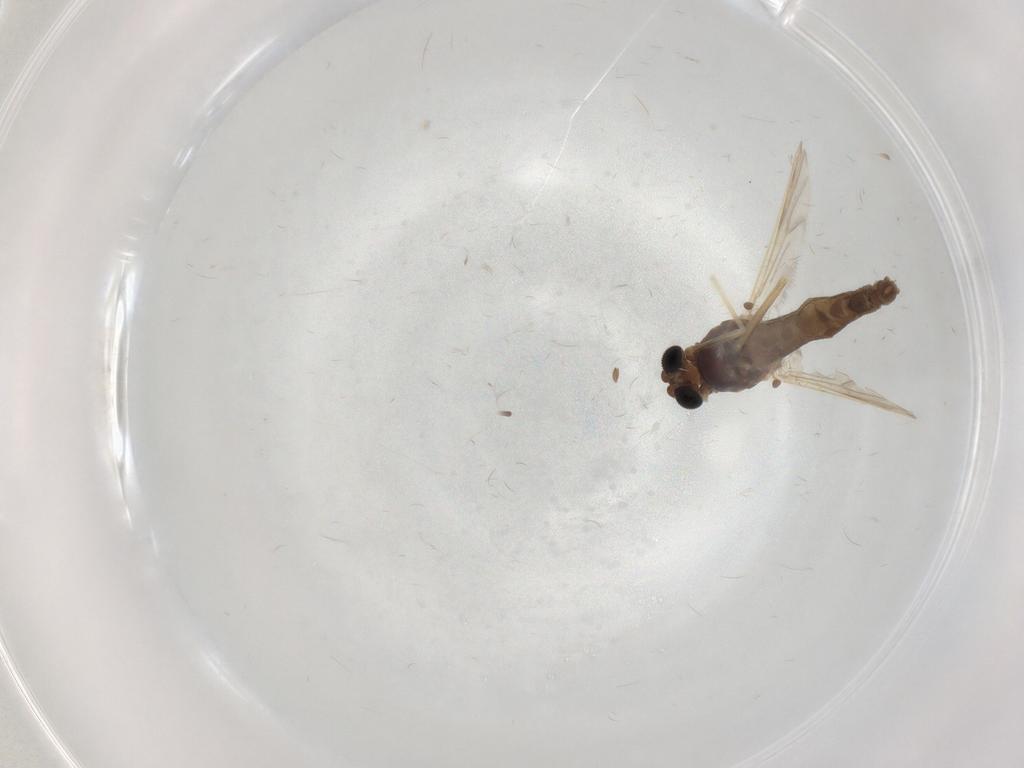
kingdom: Animalia
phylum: Arthropoda
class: Insecta
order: Diptera
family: Chironomidae
